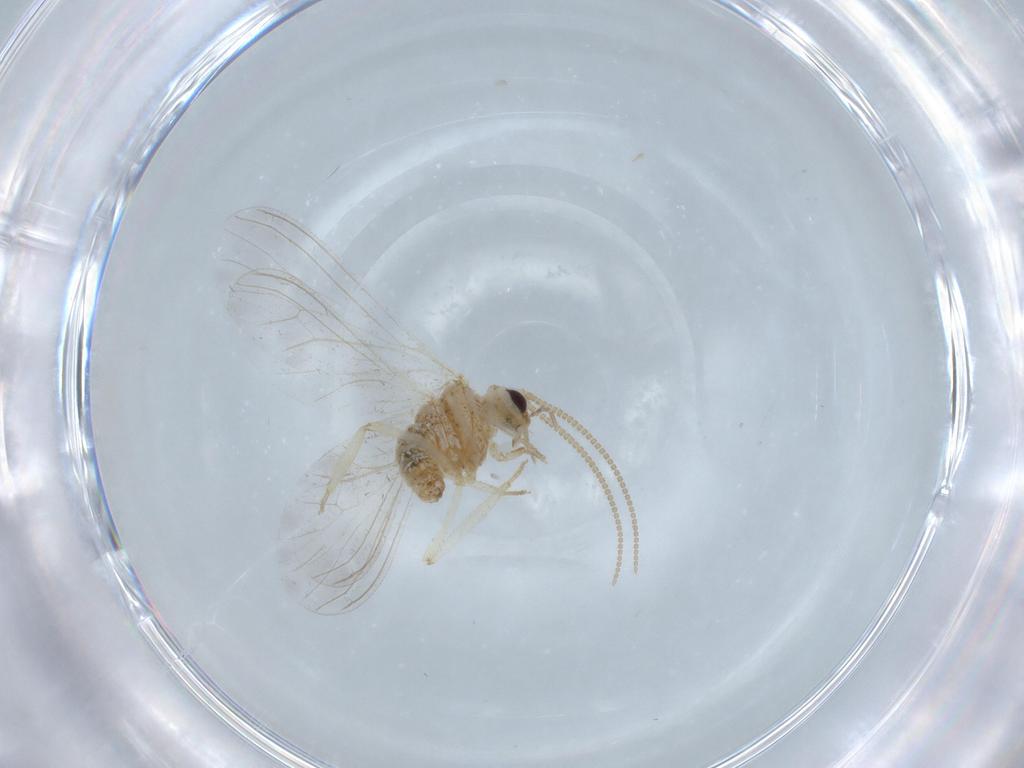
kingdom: Animalia
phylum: Arthropoda
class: Insecta
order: Neuroptera
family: Coniopterygidae
